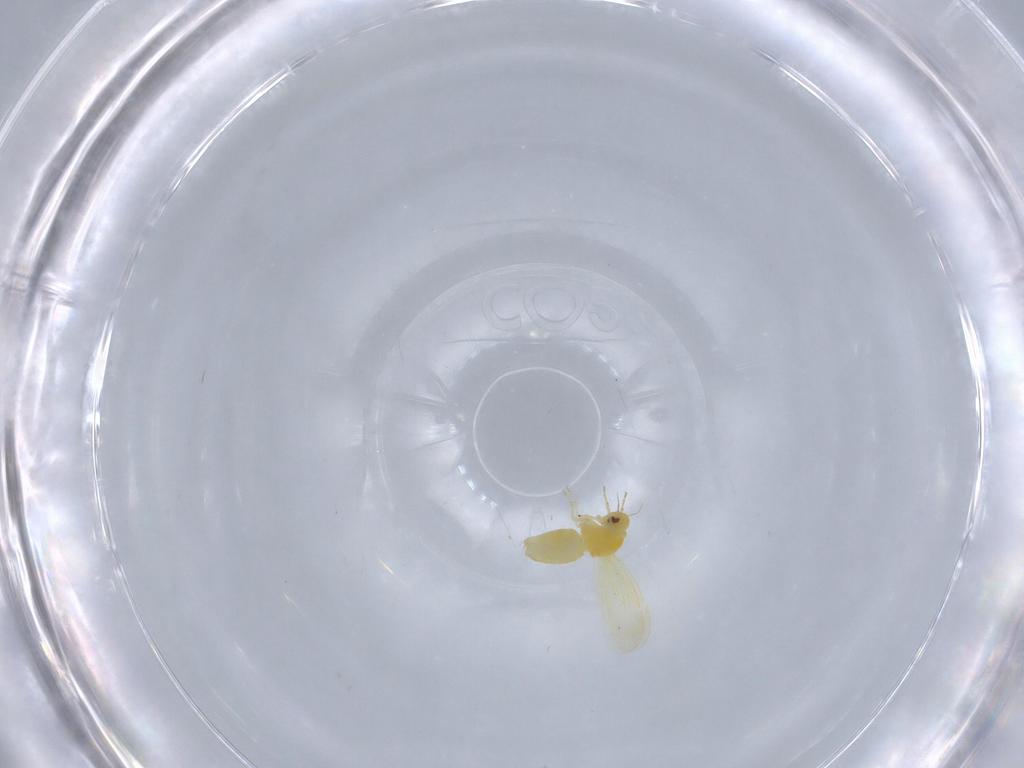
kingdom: Animalia
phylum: Arthropoda
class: Insecta
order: Hemiptera
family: Aleyrodidae
